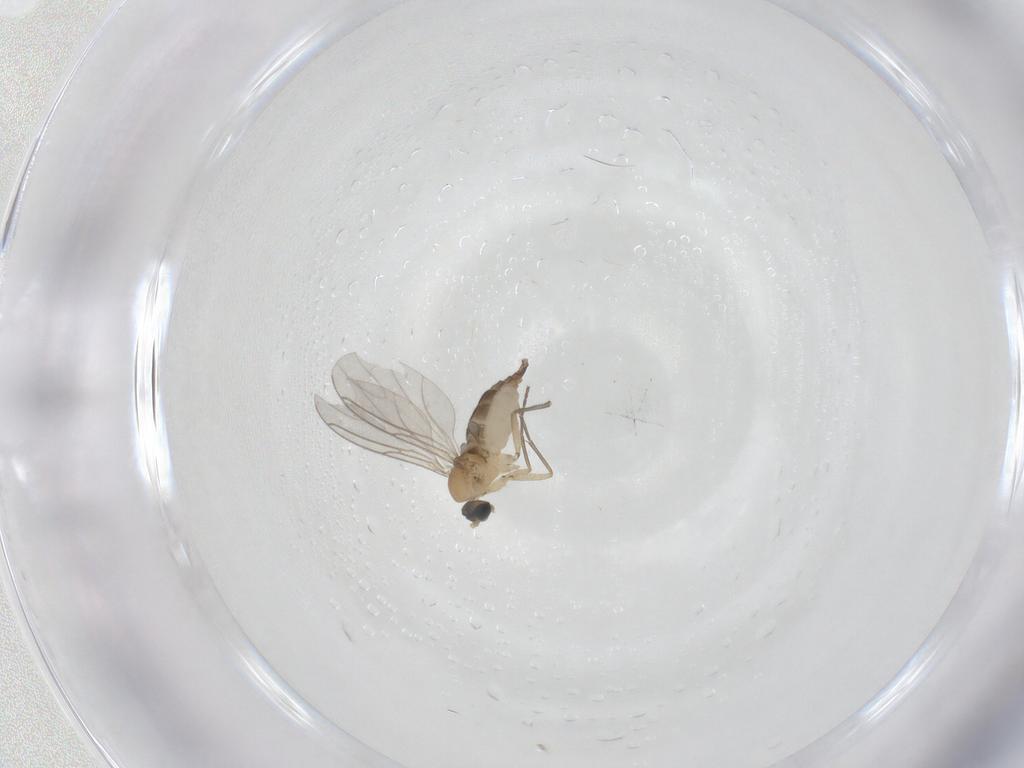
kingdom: Animalia
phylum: Arthropoda
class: Insecta
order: Diptera
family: Sciaridae
